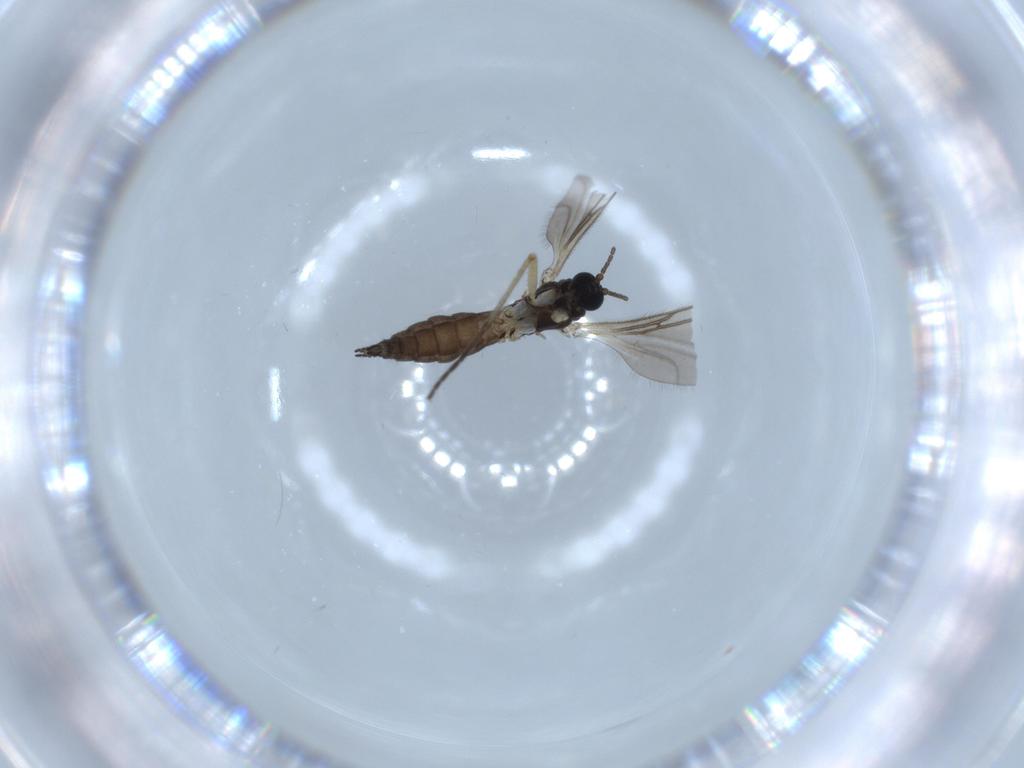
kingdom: Animalia
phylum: Arthropoda
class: Insecta
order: Diptera
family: Sciaridae
